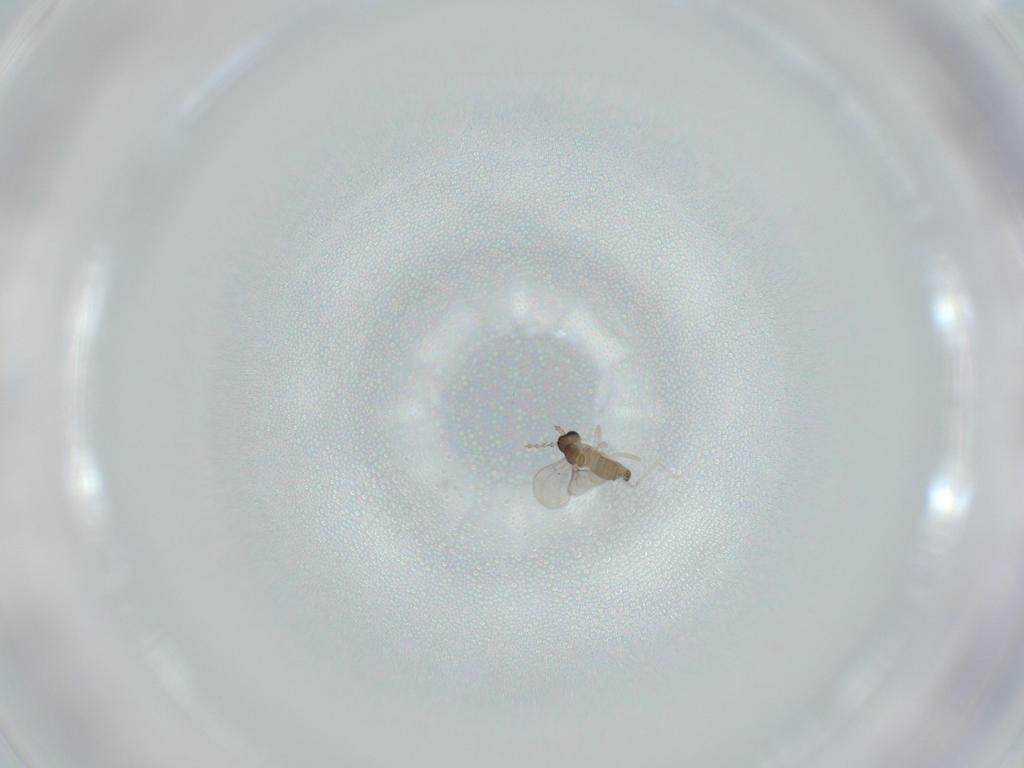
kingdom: Animalia
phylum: Arthropoda
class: Insecta
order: Diptera
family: Cecidomyiidae
